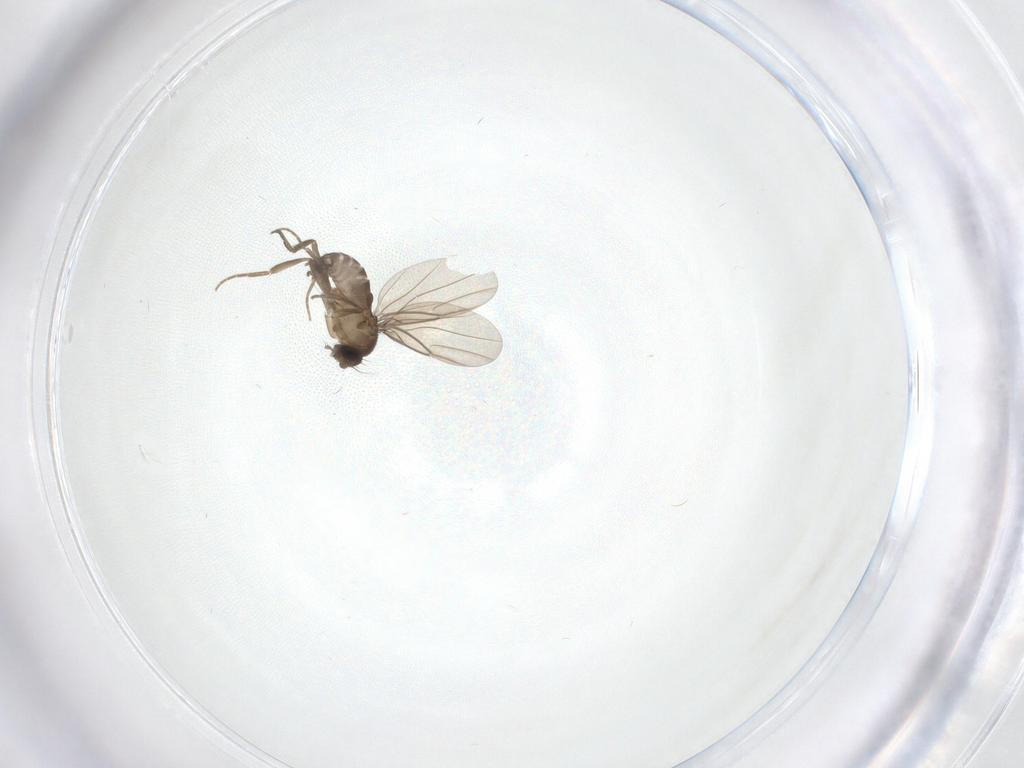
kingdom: Animalia
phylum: Arthropoda
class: Insecta
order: Diptera
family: Phoridae
